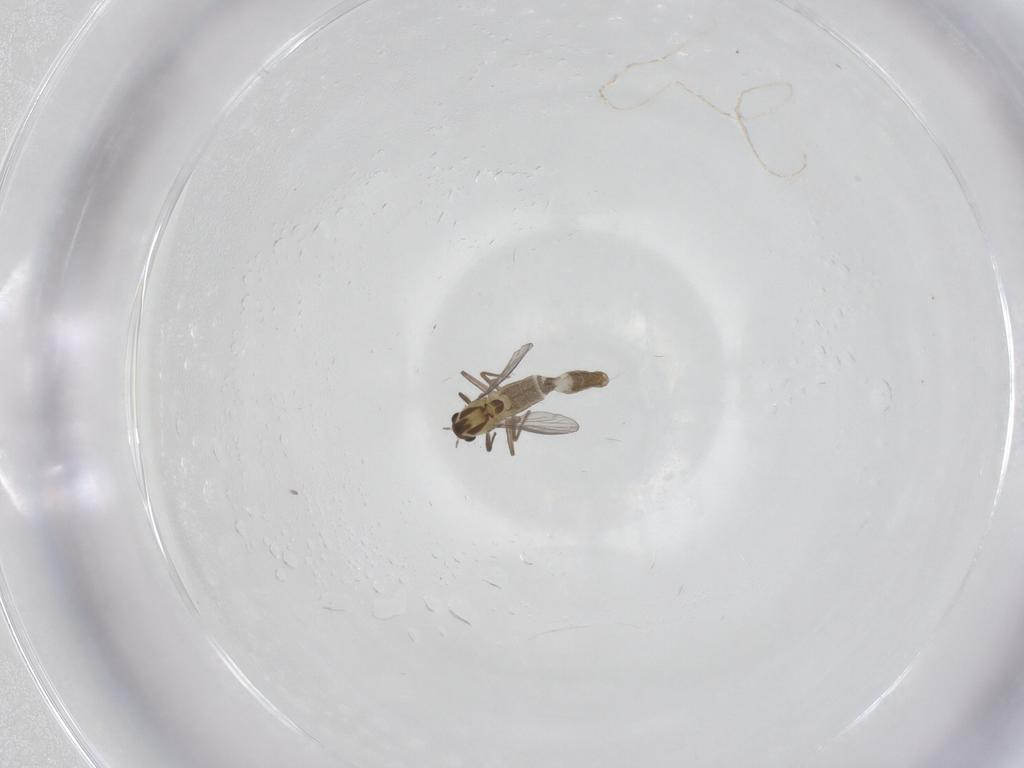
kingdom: Animalia
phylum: Arthropoda
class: Insecta
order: Diptera
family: Chironomidae
